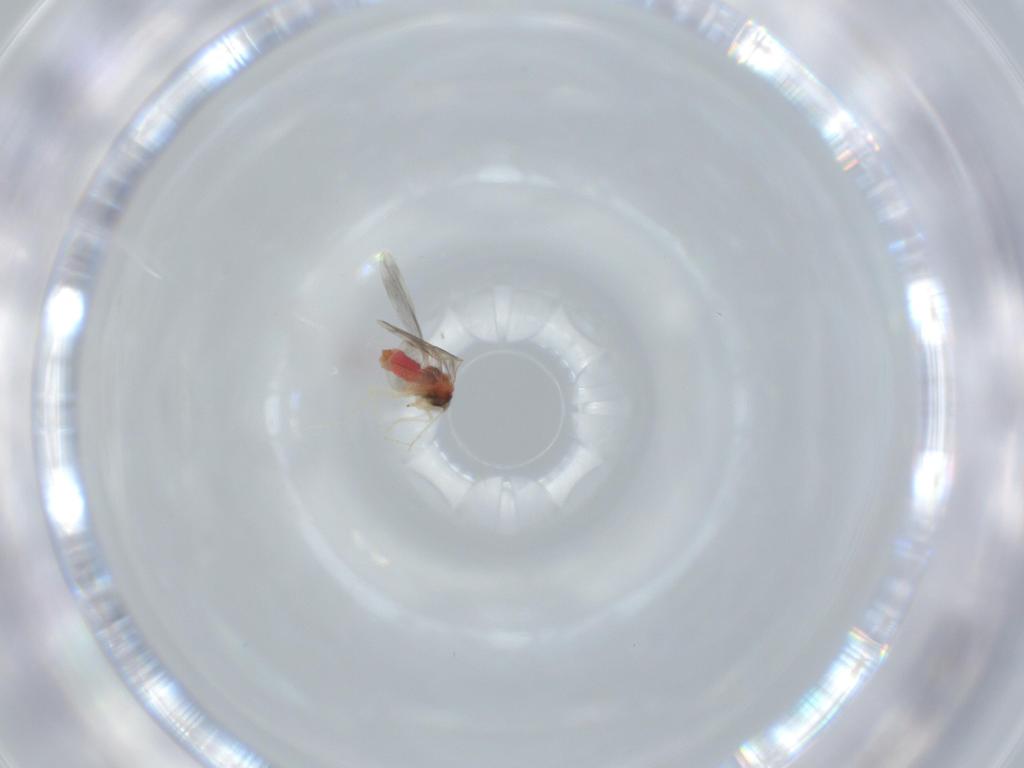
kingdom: Animalia
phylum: Arthropoda
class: Insecta
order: Hemiptera
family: Aleyrodidae
